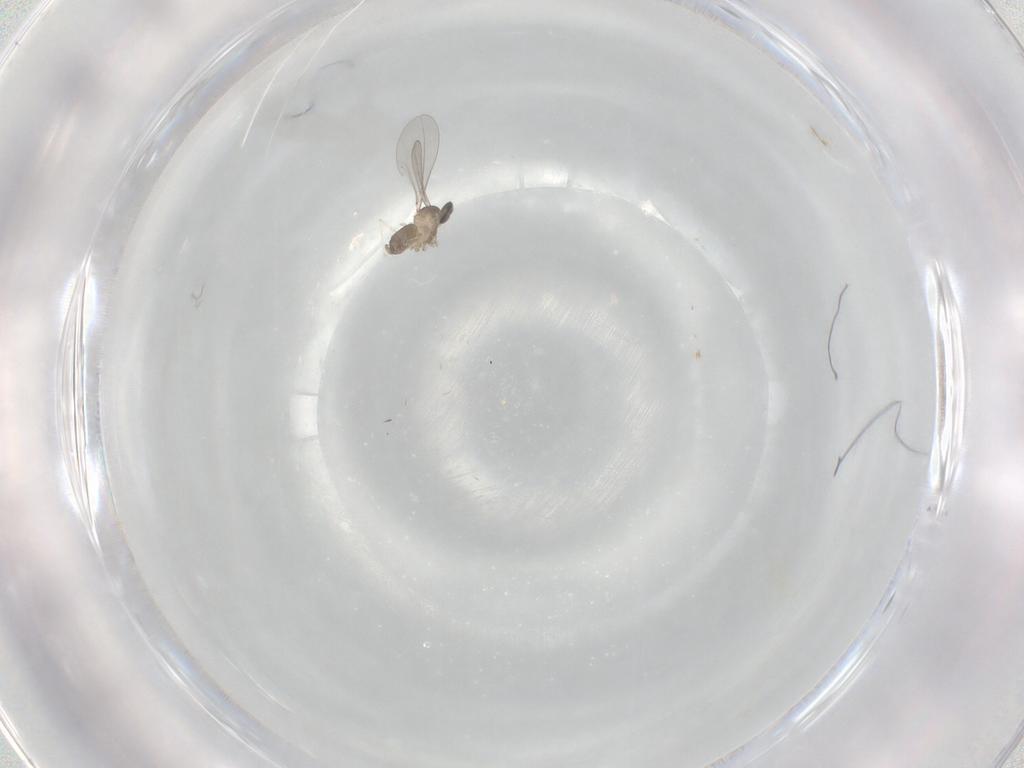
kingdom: Animalia
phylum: Arthropoda
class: Insecta
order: Diptera
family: Cecidomyiidae
